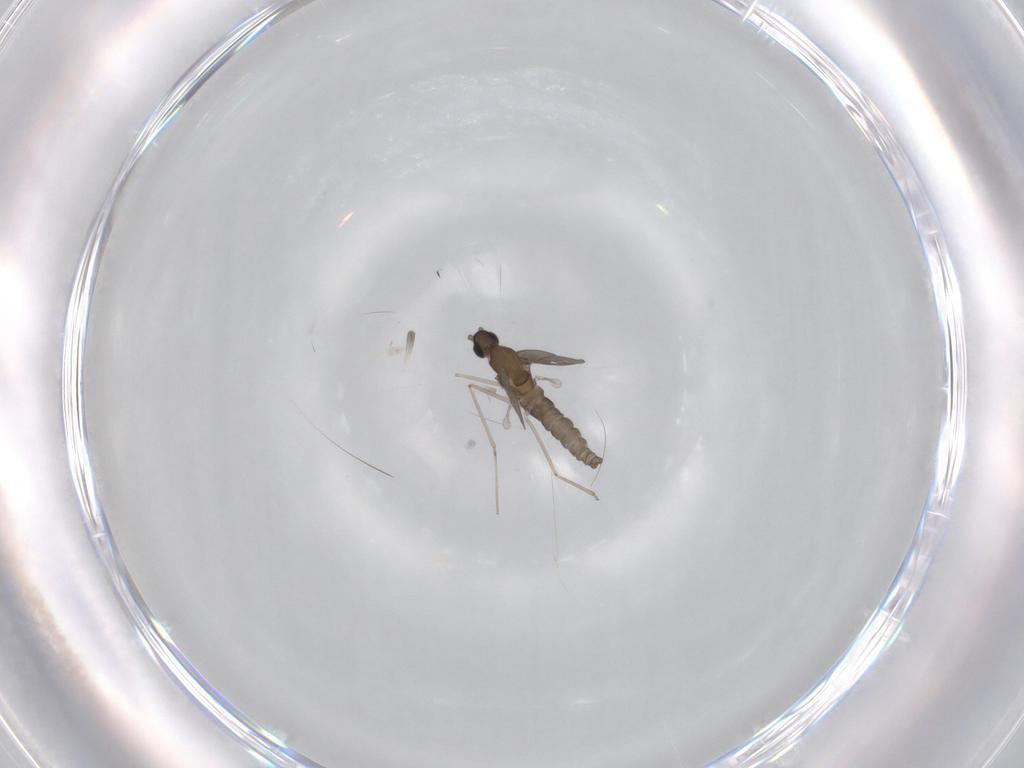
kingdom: Animalia
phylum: Arthropoda
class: Insecta
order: Diptera
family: Cecidomyiidae
